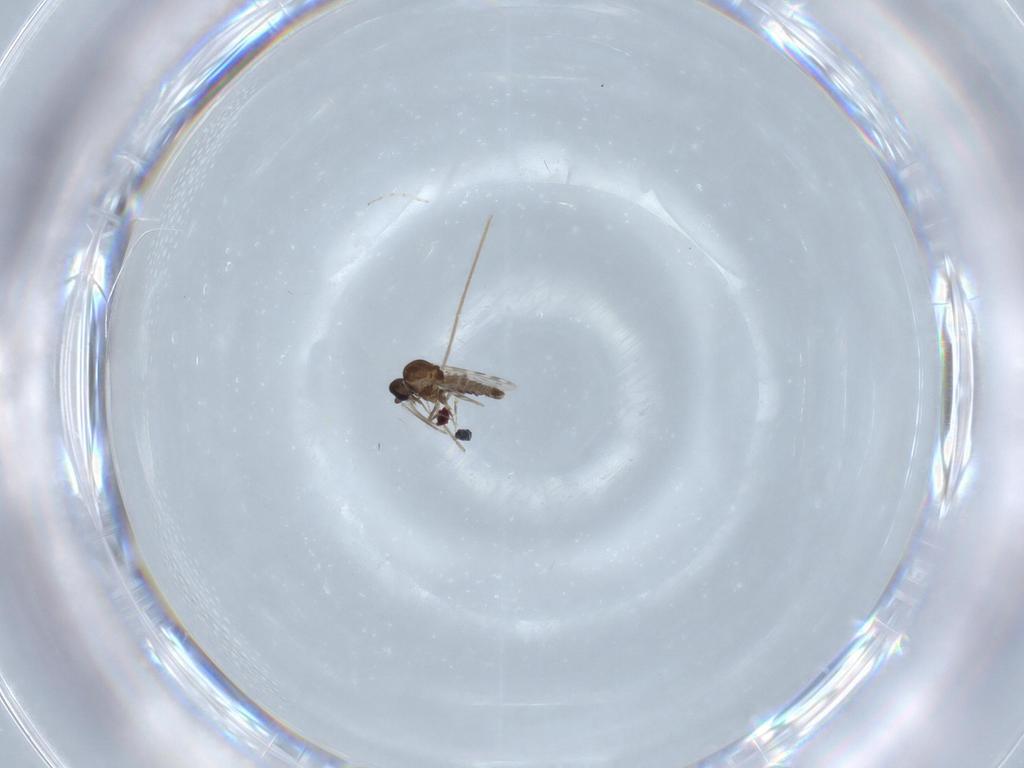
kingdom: Animalia
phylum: Arthropoda
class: Insecta
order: Diptera
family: Ceratopogonidae
